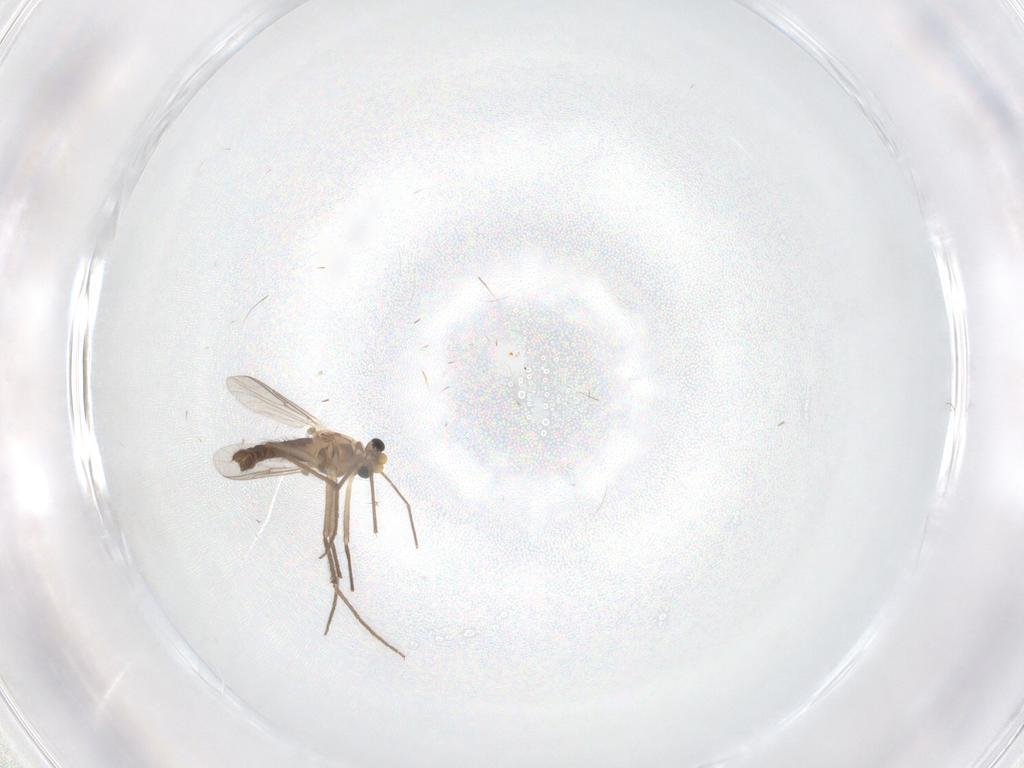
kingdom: Animalia
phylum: Arthropoda
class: Insecta
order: Diptera
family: Chironomidae
